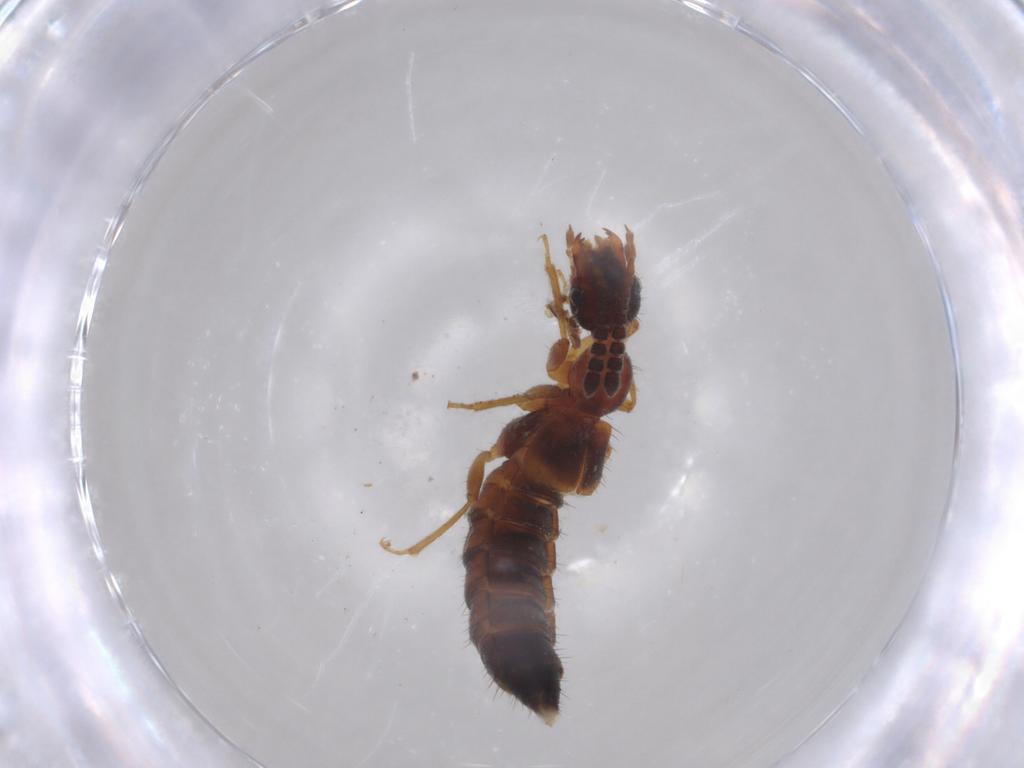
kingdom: Animalia
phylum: Arthropoda
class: Insecta
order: Coleoptera
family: Staphylinidae
